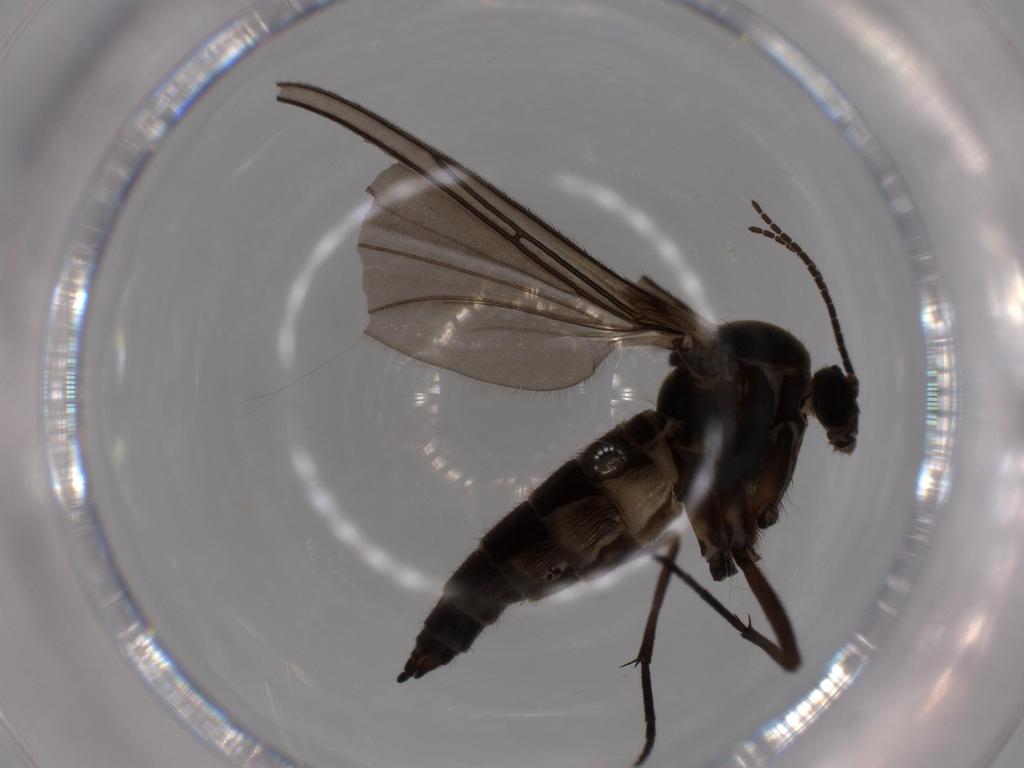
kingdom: Animalia
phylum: Arthropoda
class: Insecta
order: Diptera
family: Sciaridae
